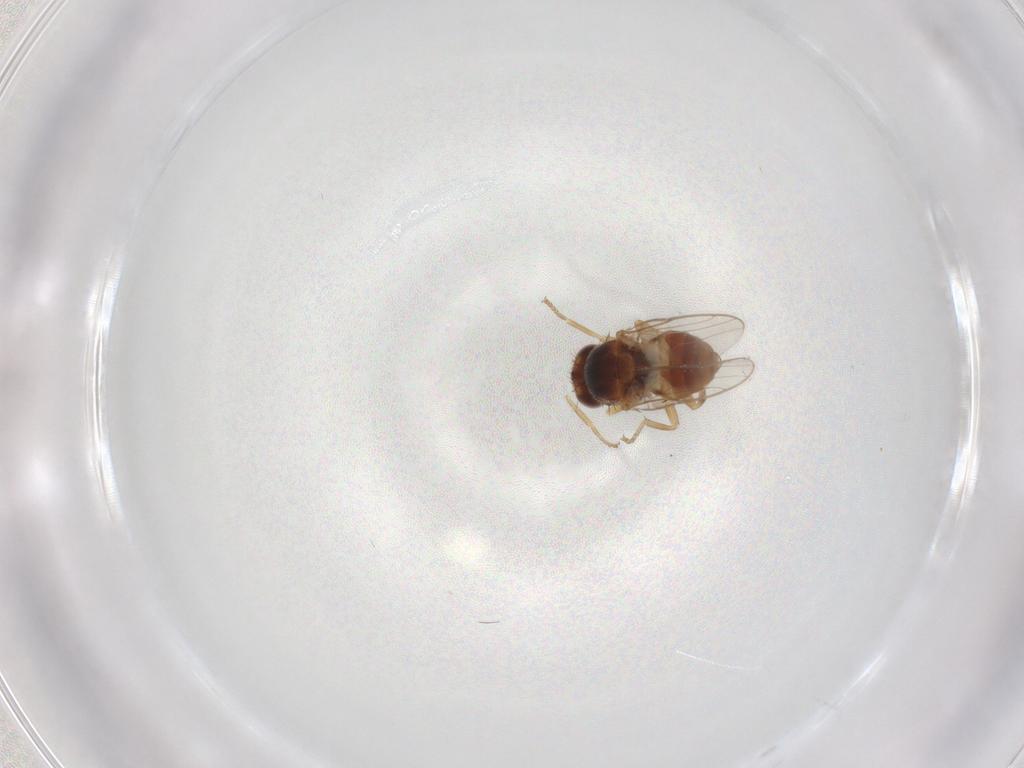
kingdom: Animalia
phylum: Arthropoda
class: Insecta
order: Diptera
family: Chloropidae
